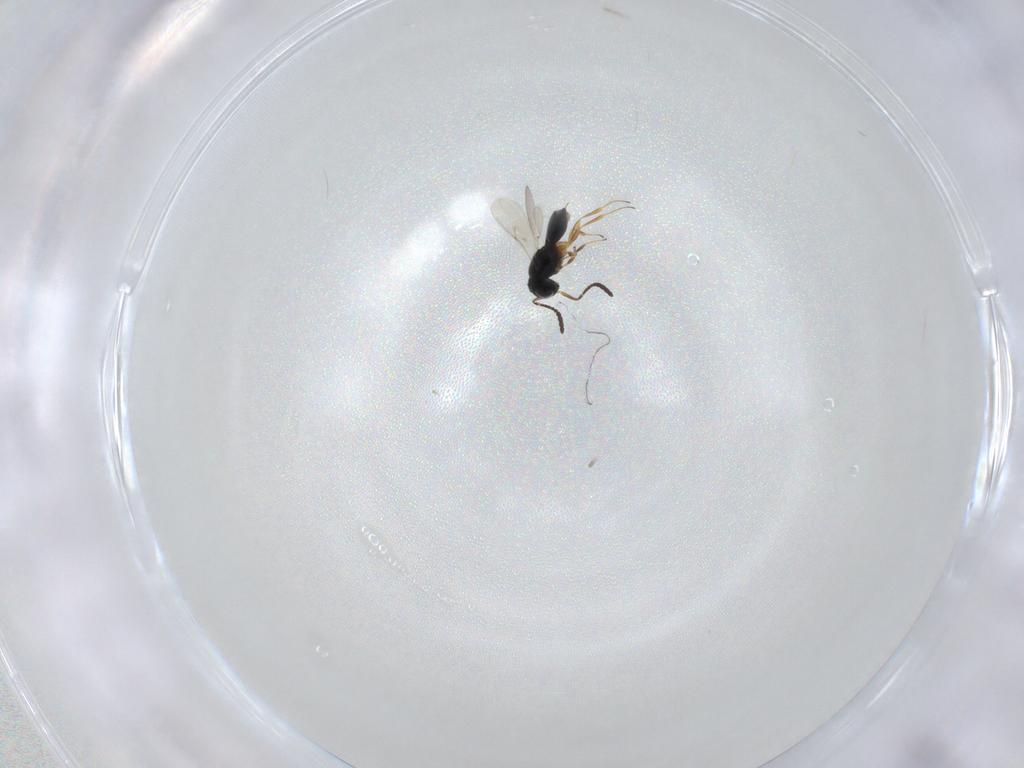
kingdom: Animalia
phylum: Arthropoda
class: Insecta
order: Hymenoptera
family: Scelionidae
